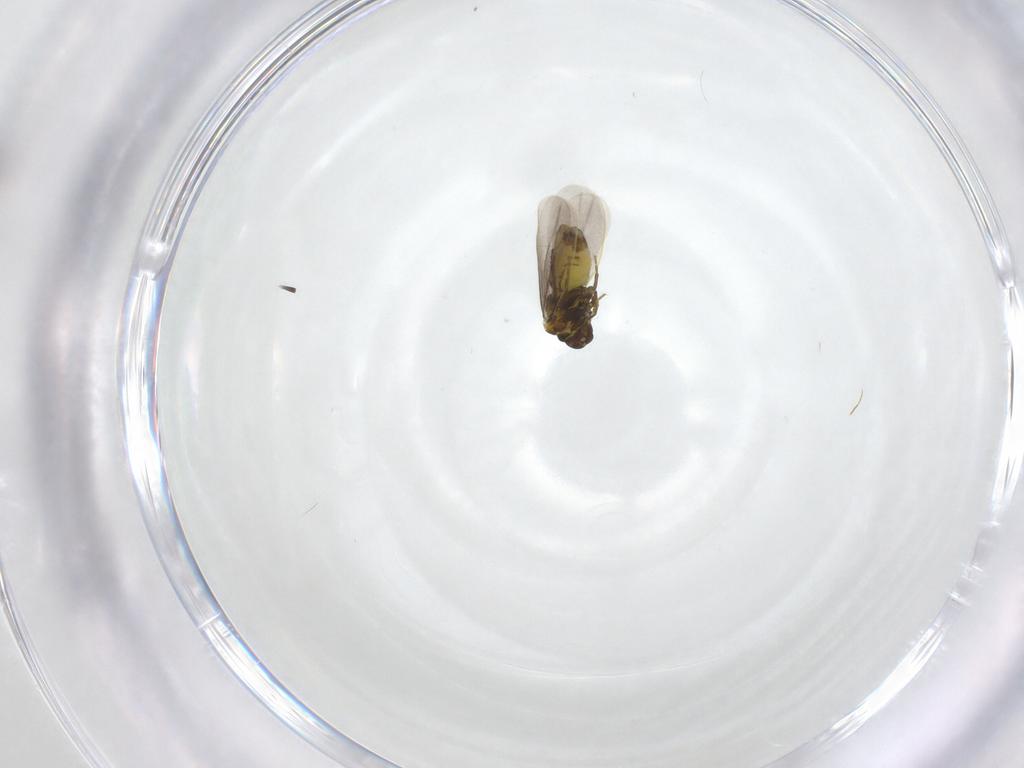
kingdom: Animalia
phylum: Arthropoda
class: Insecta
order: Hemiptera
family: Aleyrodidae
